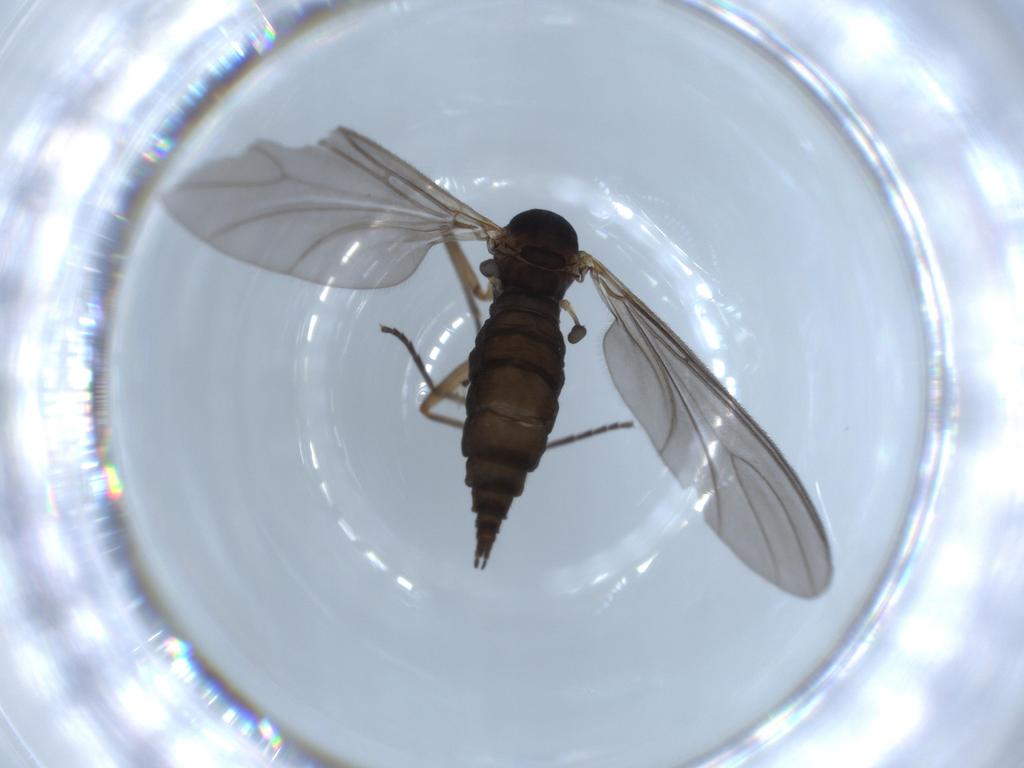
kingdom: Animalia
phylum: Arthropoda
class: Insecta
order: Diptera
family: Sciaridae
